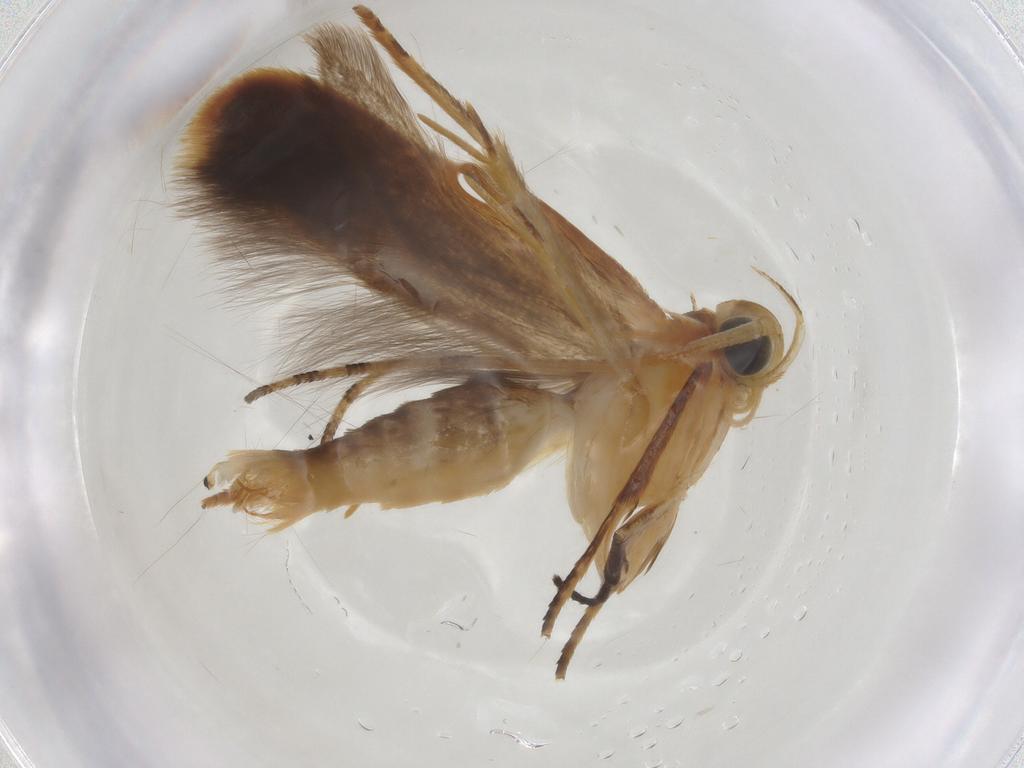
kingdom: Animalia
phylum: Arthropoda
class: Insecta
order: Lepidoptera
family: Elachistidae
